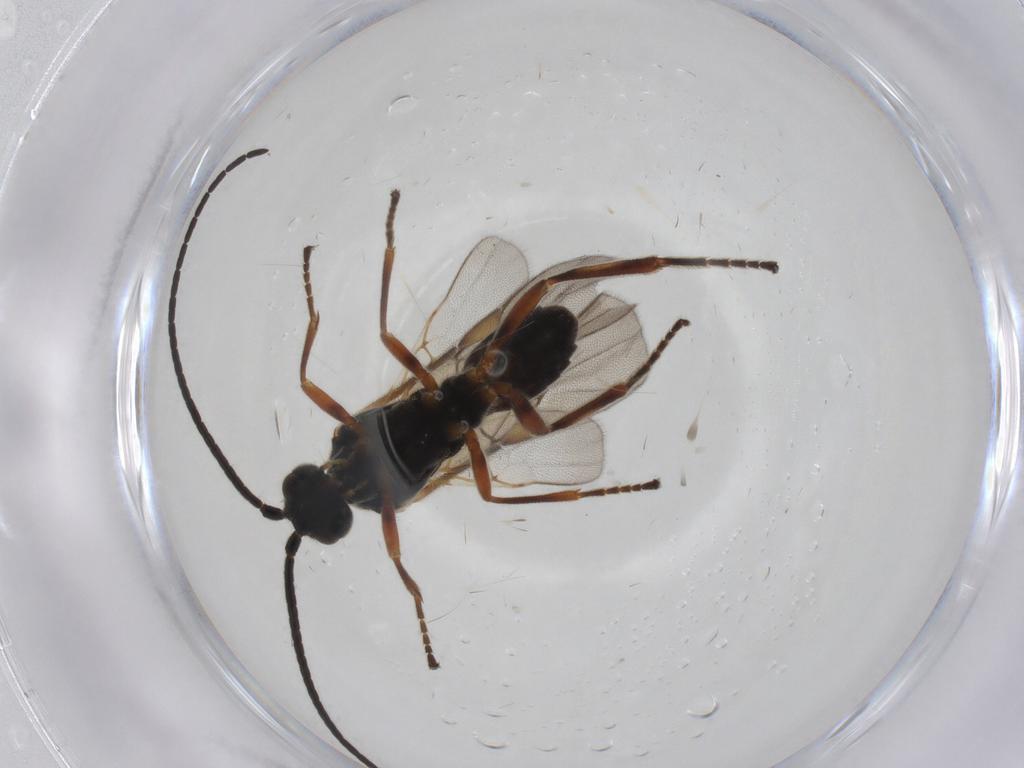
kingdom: Animalia
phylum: Arthropoda
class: Insecta
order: Hymenoptera
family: Braconidae
